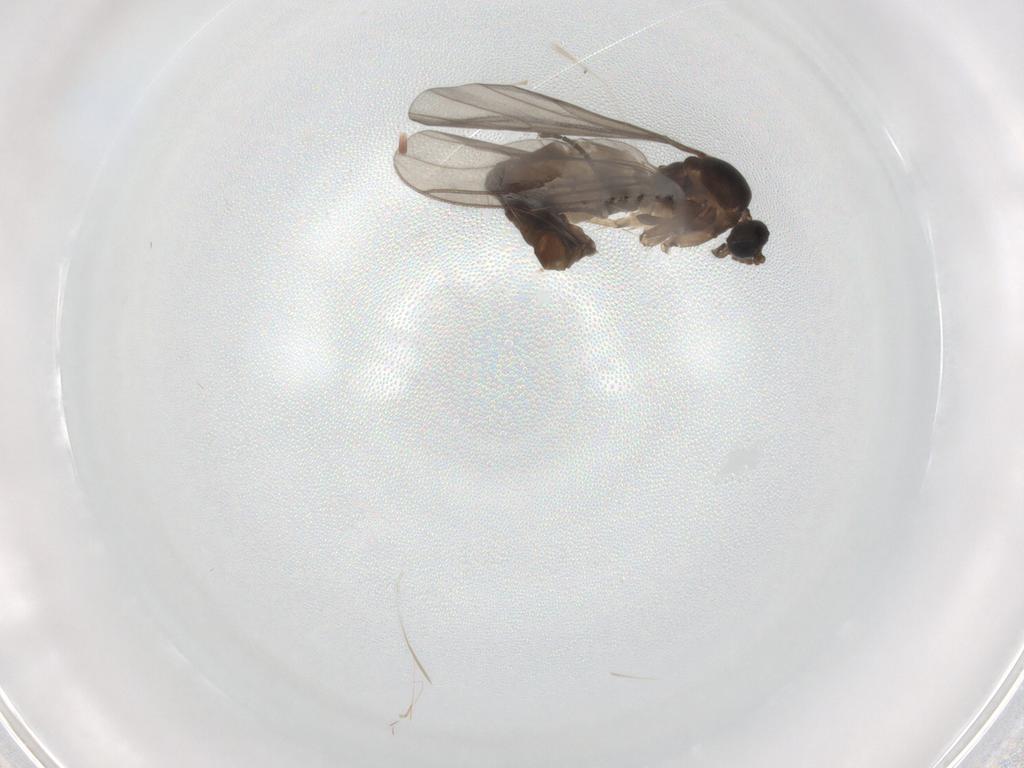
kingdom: Animalia
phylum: Arthropoda
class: Insecta
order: Diptera
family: Sciaridae
